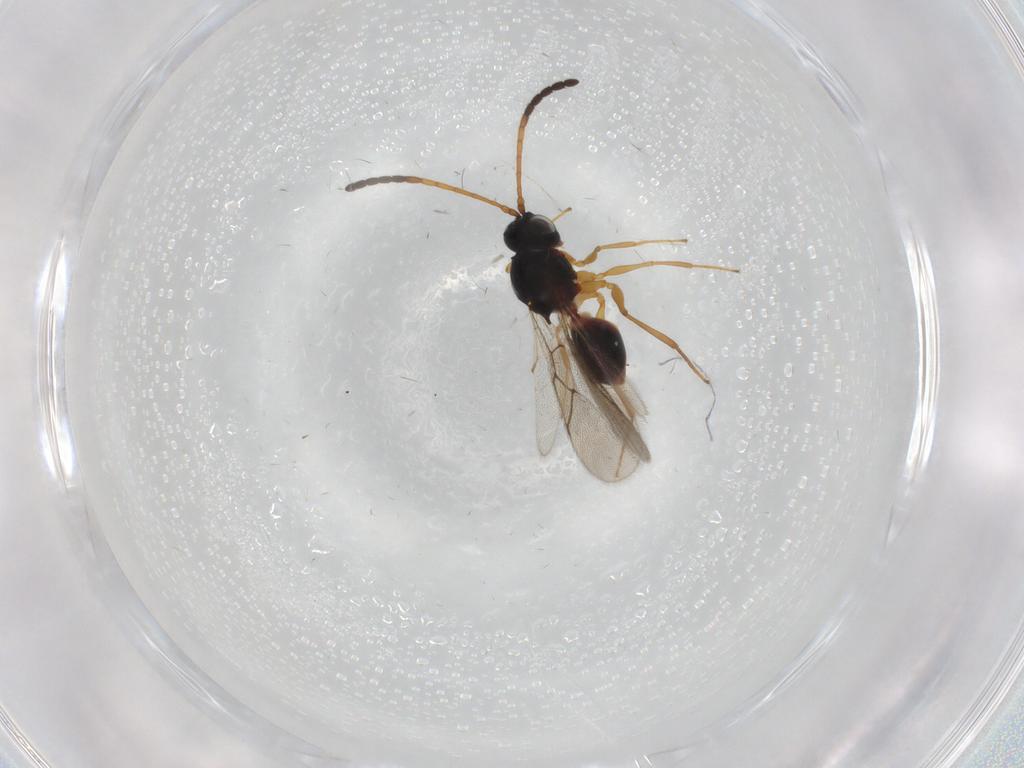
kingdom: Animalia
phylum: Arthropoda
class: Insecta
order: Hymenoptera
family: Figitidae
